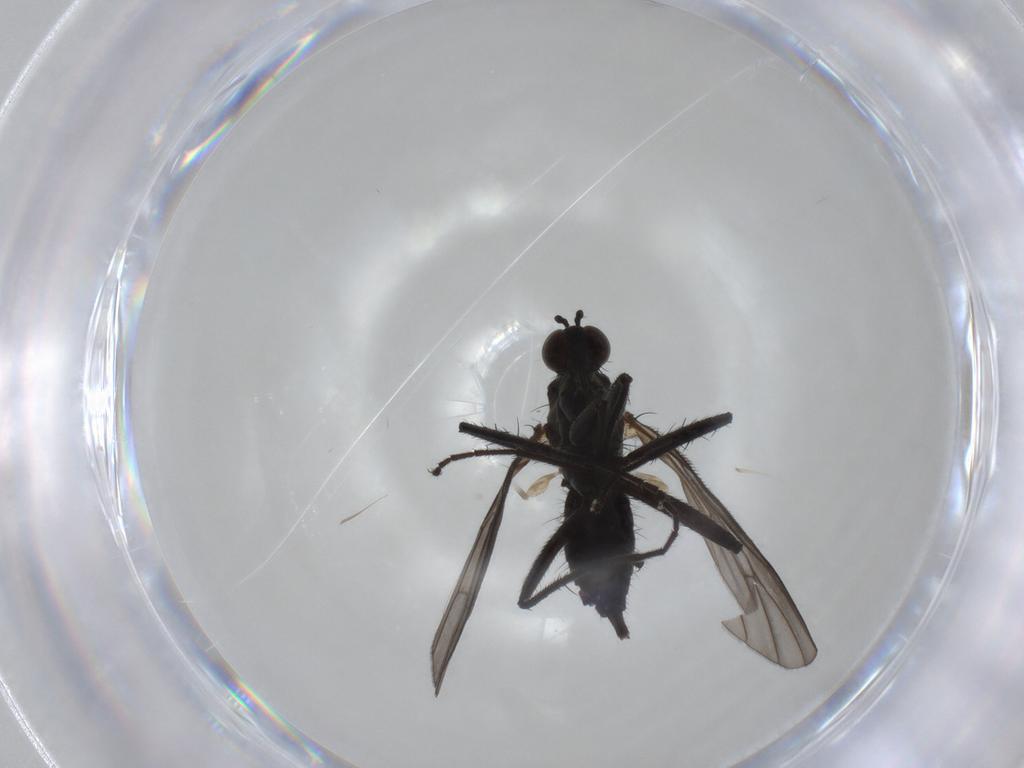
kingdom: Animalia
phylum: Arthropoda
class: Insecta
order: Diptera
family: Empididae
